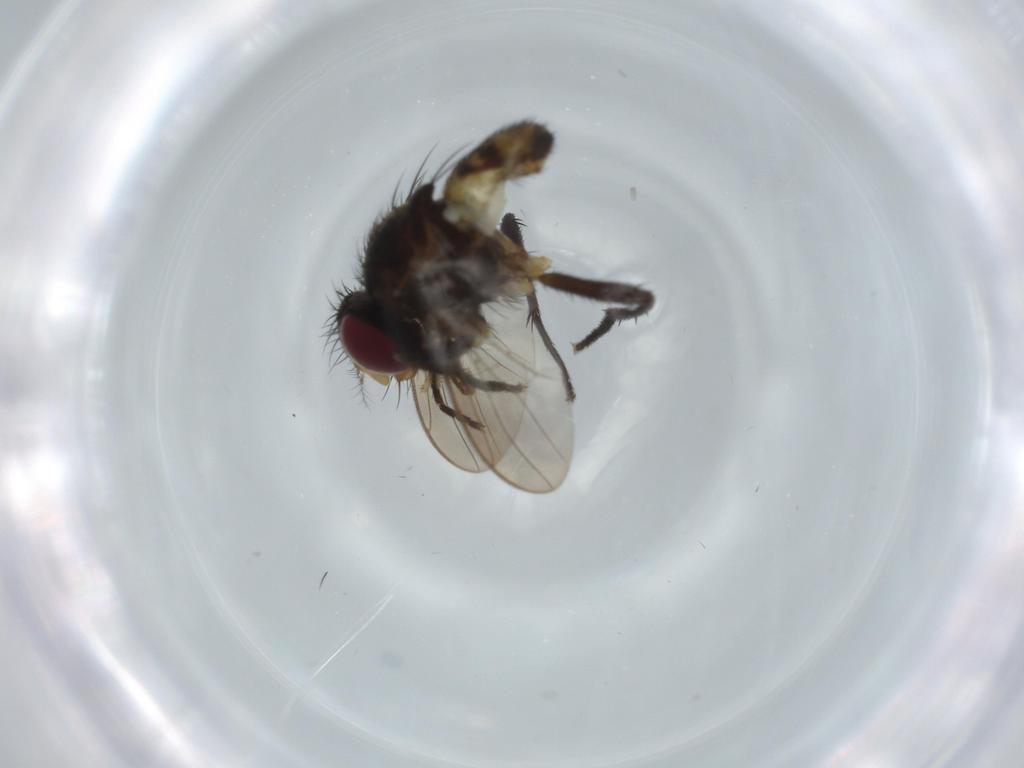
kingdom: Animalia
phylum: Arthropoda
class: Insecta
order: Diptera
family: Anthomyiidae
